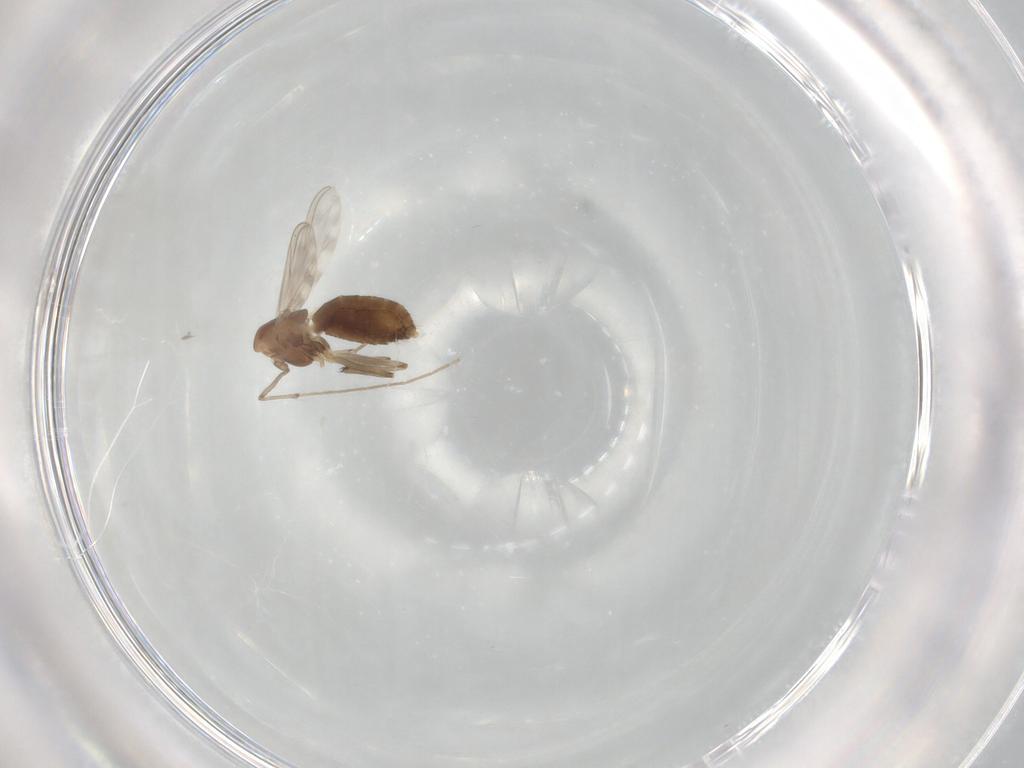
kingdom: Animalia
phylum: Arthropoda
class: Insecta
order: Diptera
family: Chironomidae
